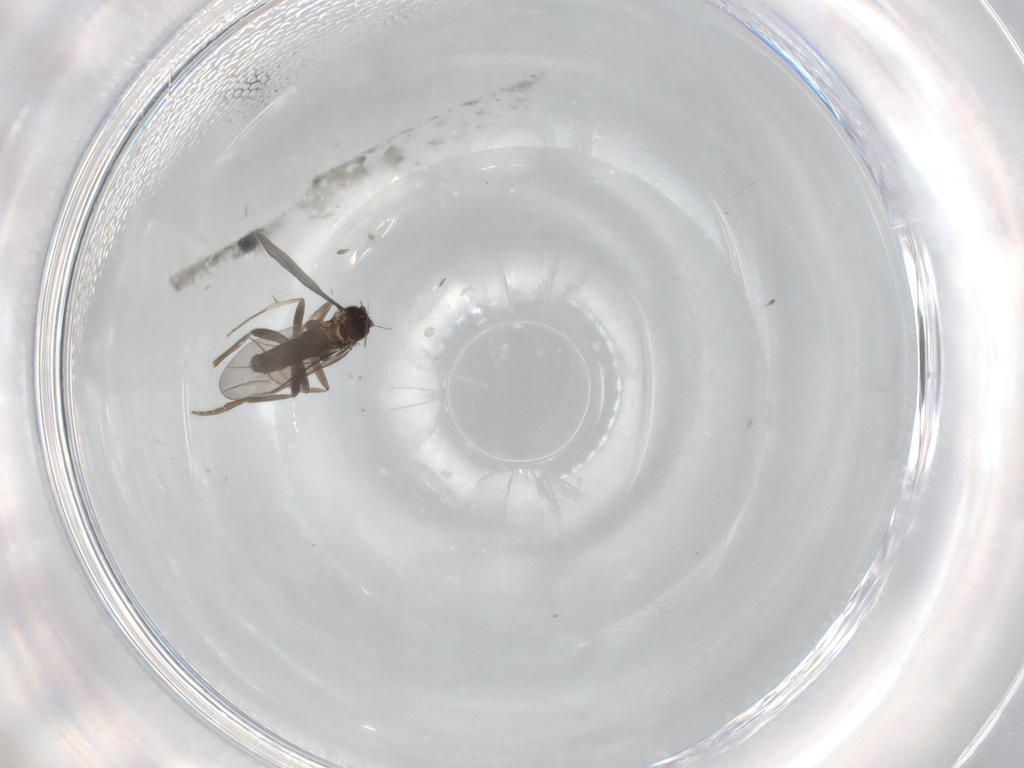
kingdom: Animalia
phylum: Arthropoda
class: Insecta
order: Diptera
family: Phoridae
